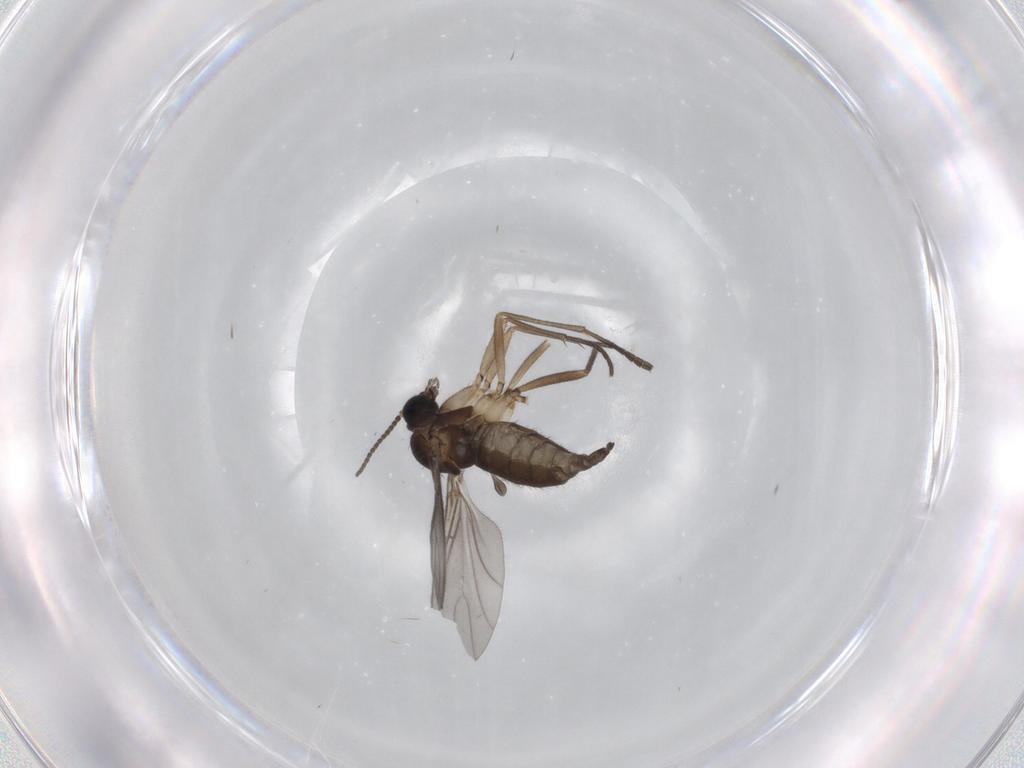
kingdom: Animalia
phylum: Arthropoda
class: Insecta
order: Diptera
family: Sciaridae
